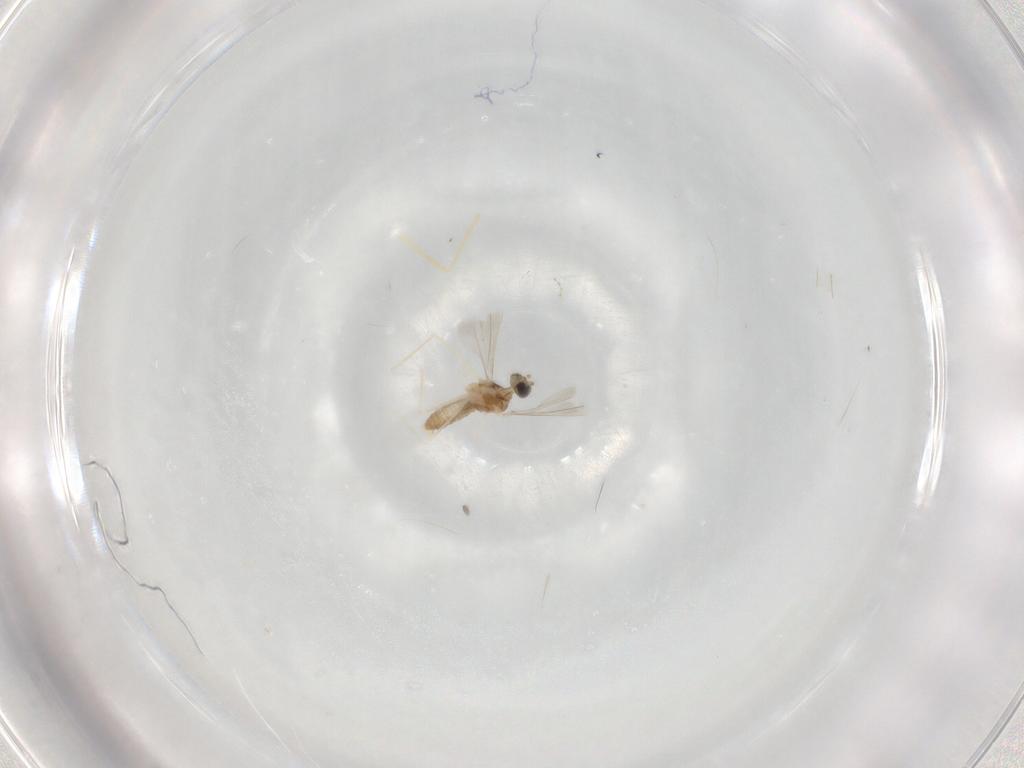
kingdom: Animalia
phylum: Arthropoda
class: Insecta
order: Diptera
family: Cecidomyiidae
